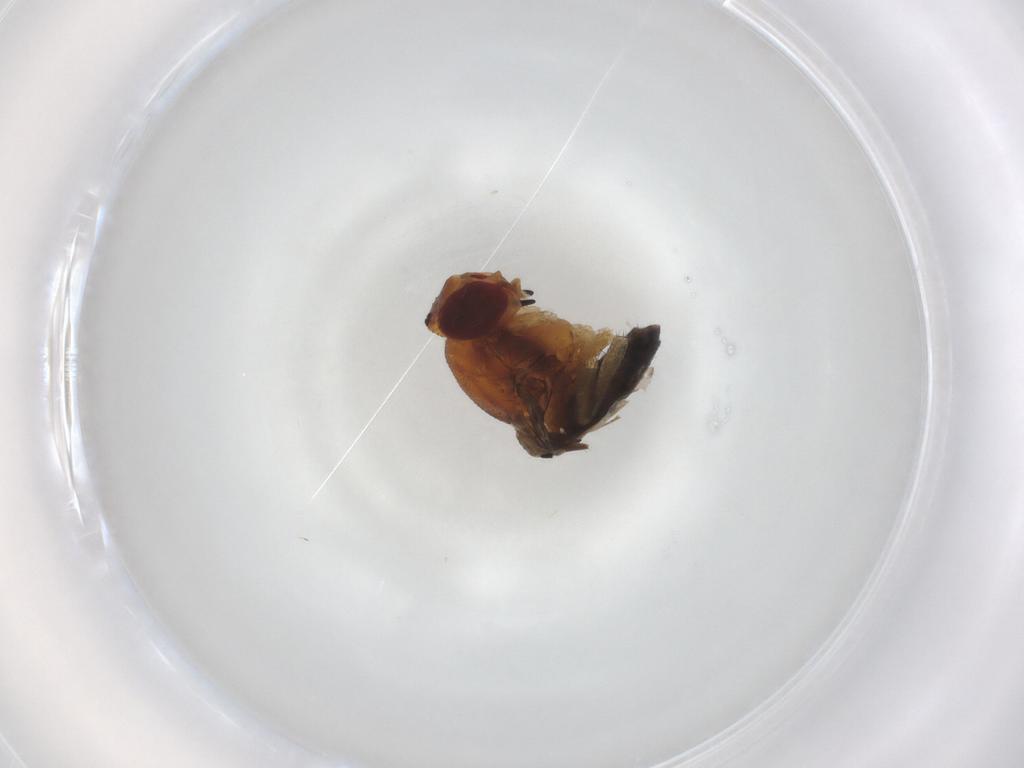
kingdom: Animalia
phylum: Arthropoda
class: Insecta
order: Diptera
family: Drosophilidae
